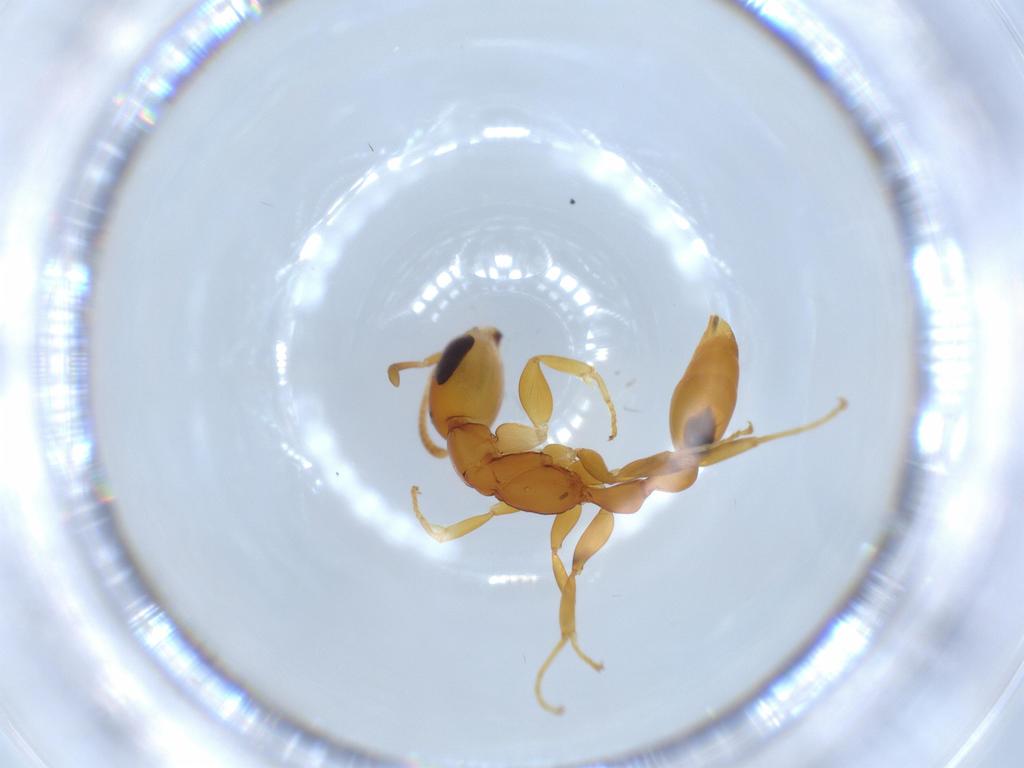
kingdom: Animalia
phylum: Arthropoda
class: Insecta
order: Hymenoptera
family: Formicidae
